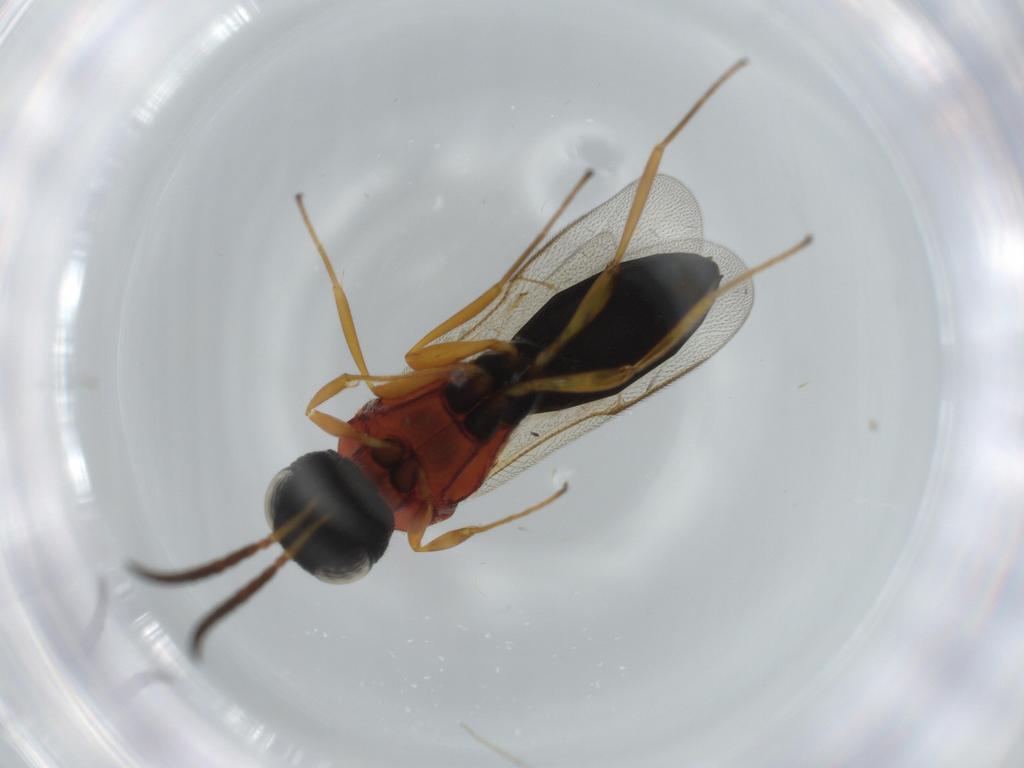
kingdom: Animalia
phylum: Arthropoda
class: Insecta
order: Hymenoptera
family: Scelionidae
